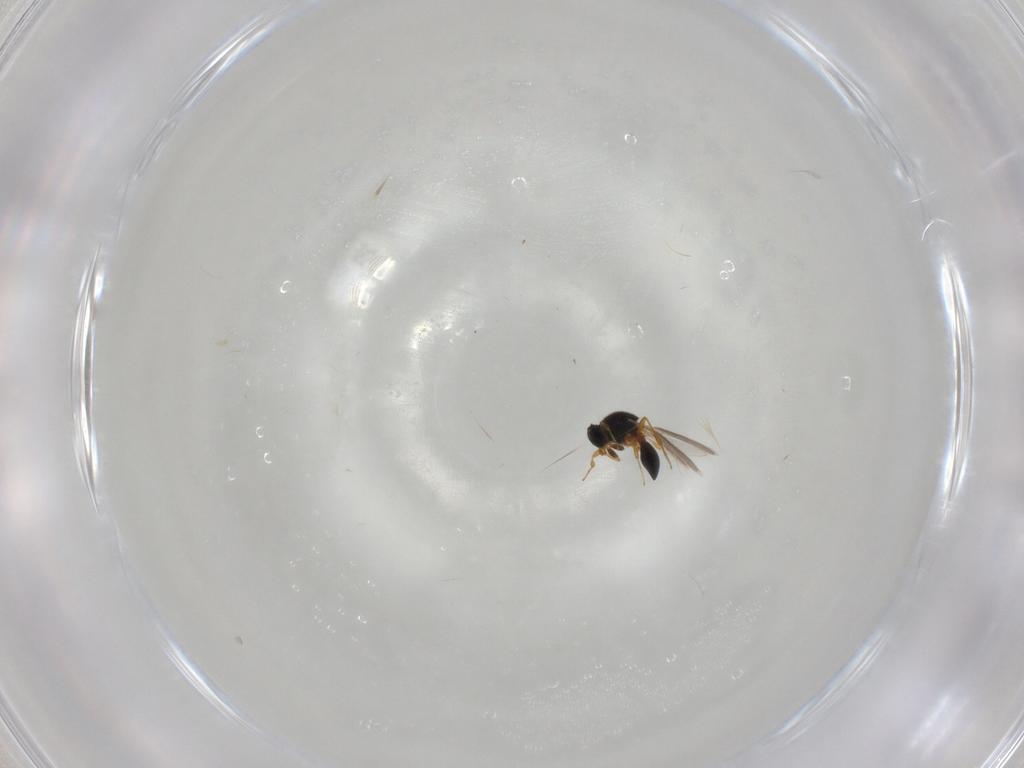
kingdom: Animalia
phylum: Arthropoda
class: Insecta
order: Hymenoptera
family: Platygastridae
